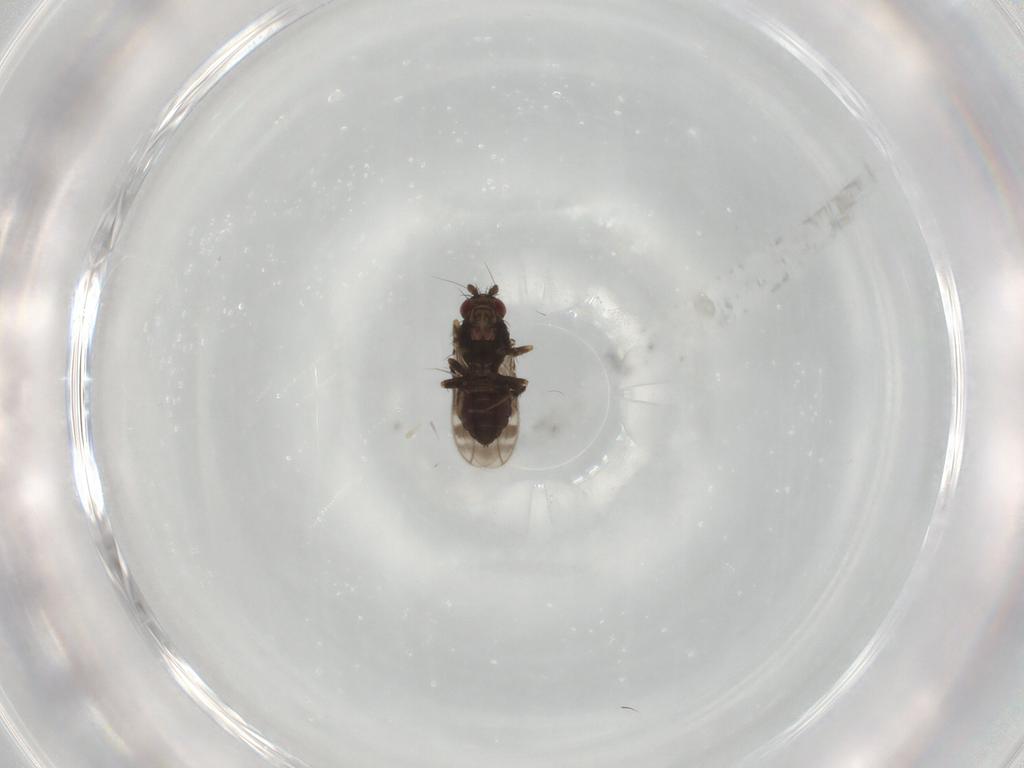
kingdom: Animalia
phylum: Arthropoda
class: Insecta
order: Diptera
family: Sphaeroceridae
